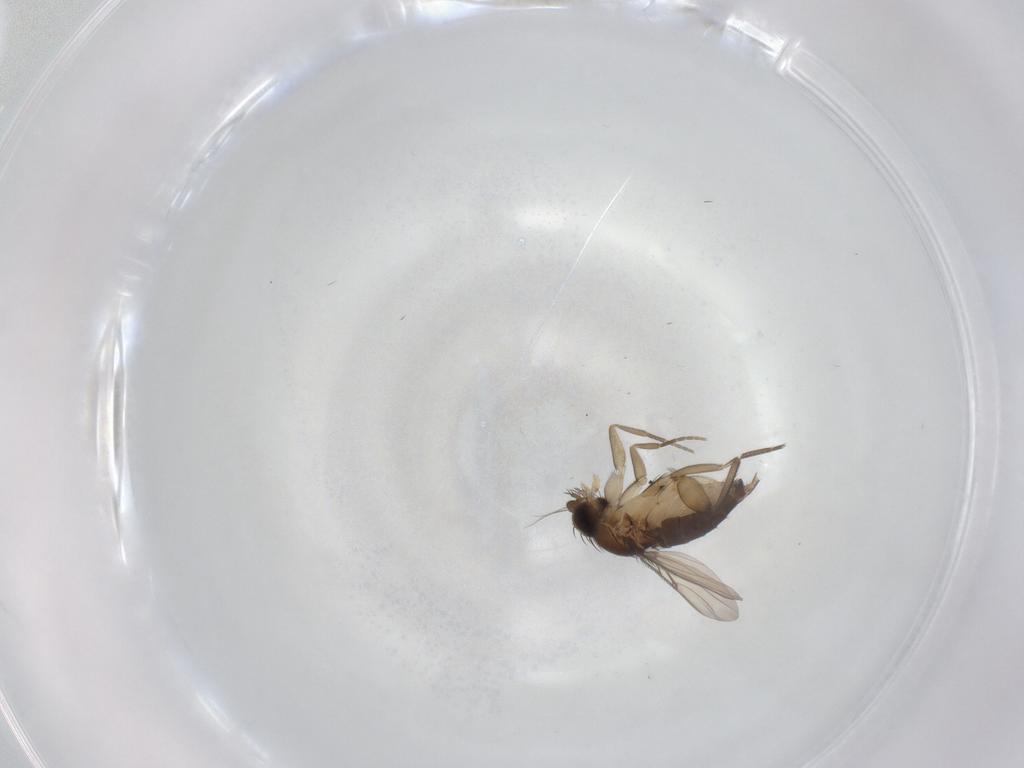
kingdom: Animalia
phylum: Arthropoda
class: Insecta
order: Diptera
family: Phoridae
